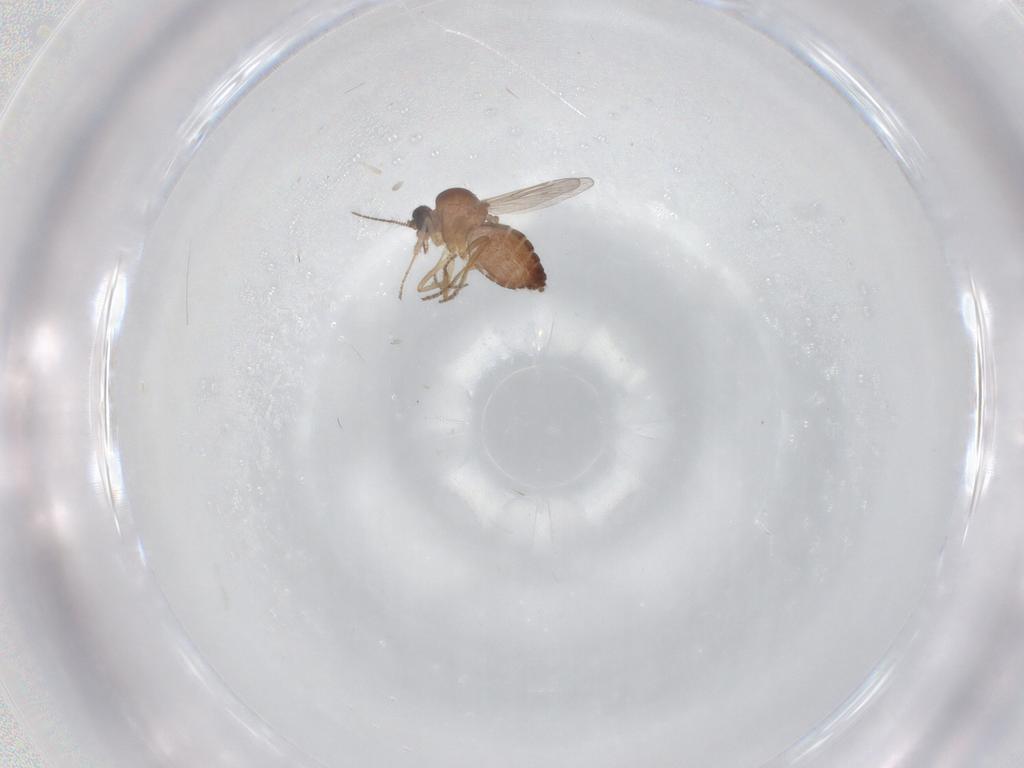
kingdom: Animalia
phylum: Arthropoda
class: Insecta
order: Diptera
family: Ceratopogonidae
